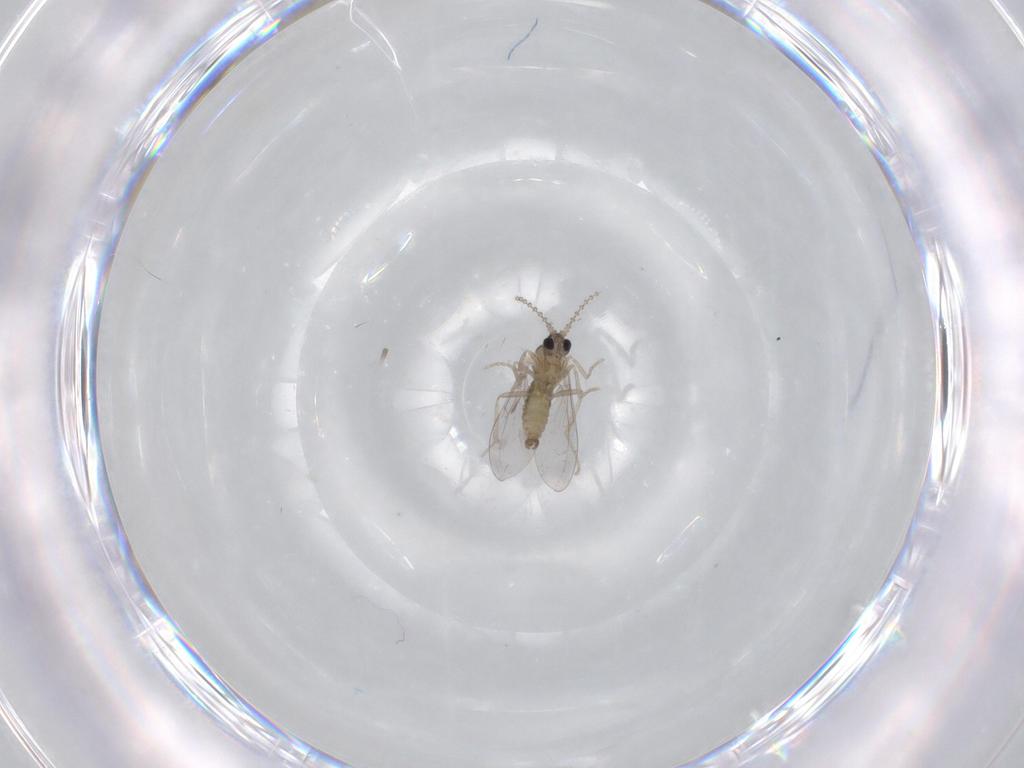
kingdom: Animalia
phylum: Arthropoda
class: Insecta
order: Diptera
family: Cecidomyiidae
